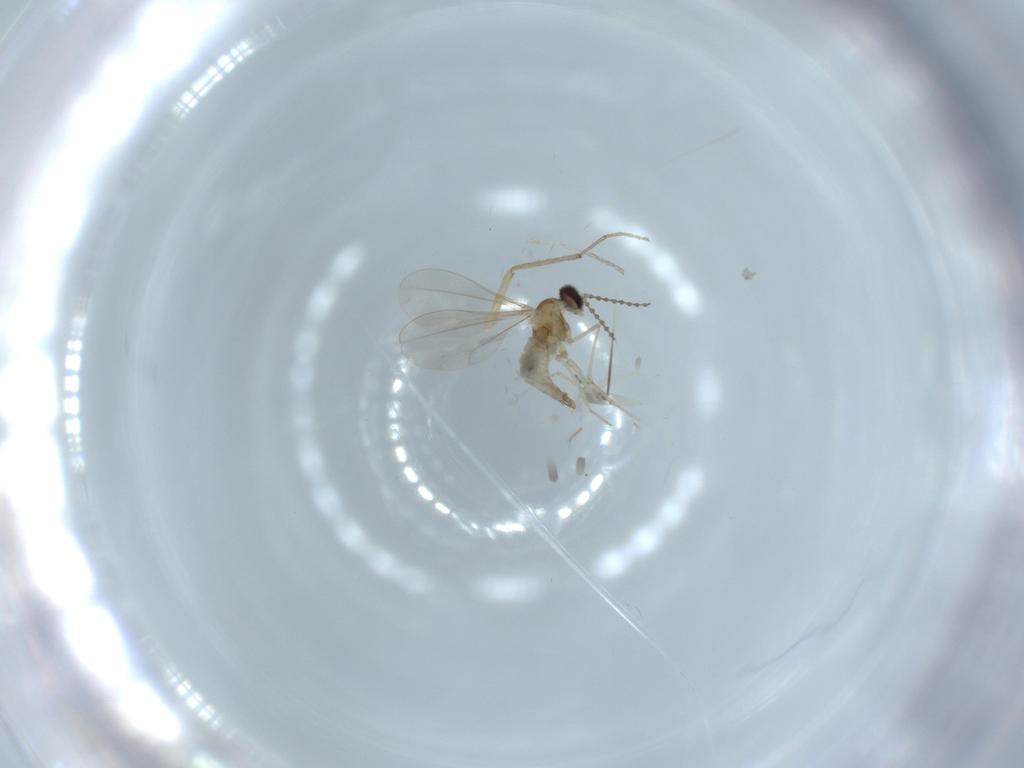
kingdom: Animalia
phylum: Arthropoda
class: Insecta
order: Diptera
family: Chironomidae
